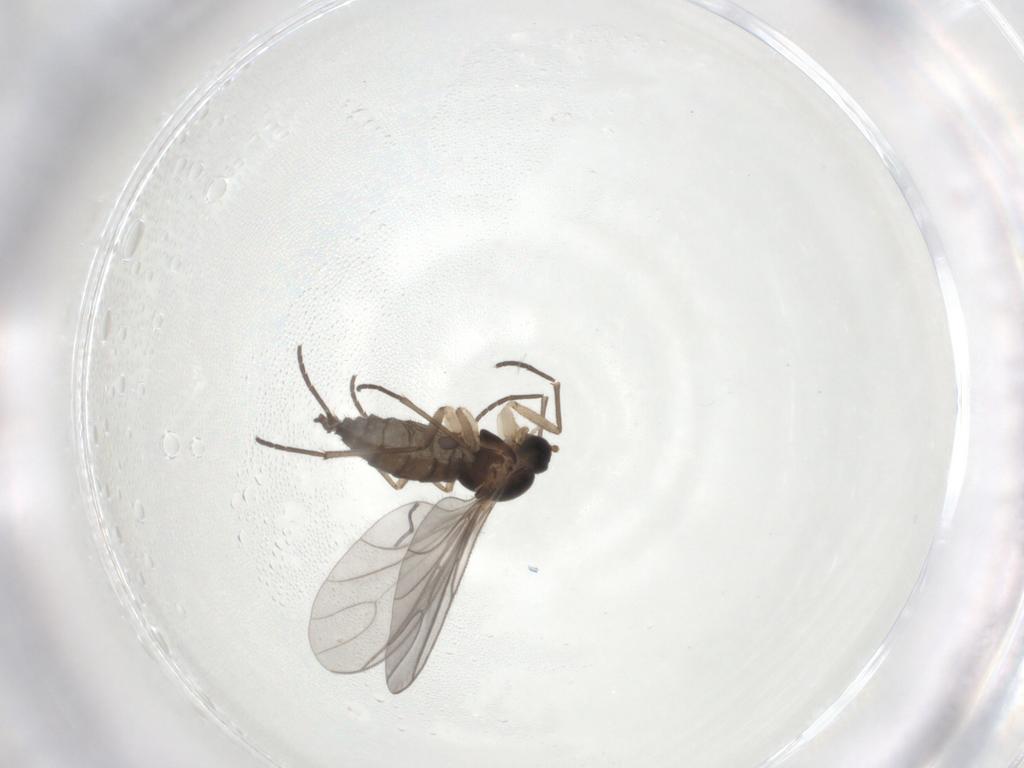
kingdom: Animalia
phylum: Arthropoda
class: Insecta
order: Diptera
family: Sciaridae
